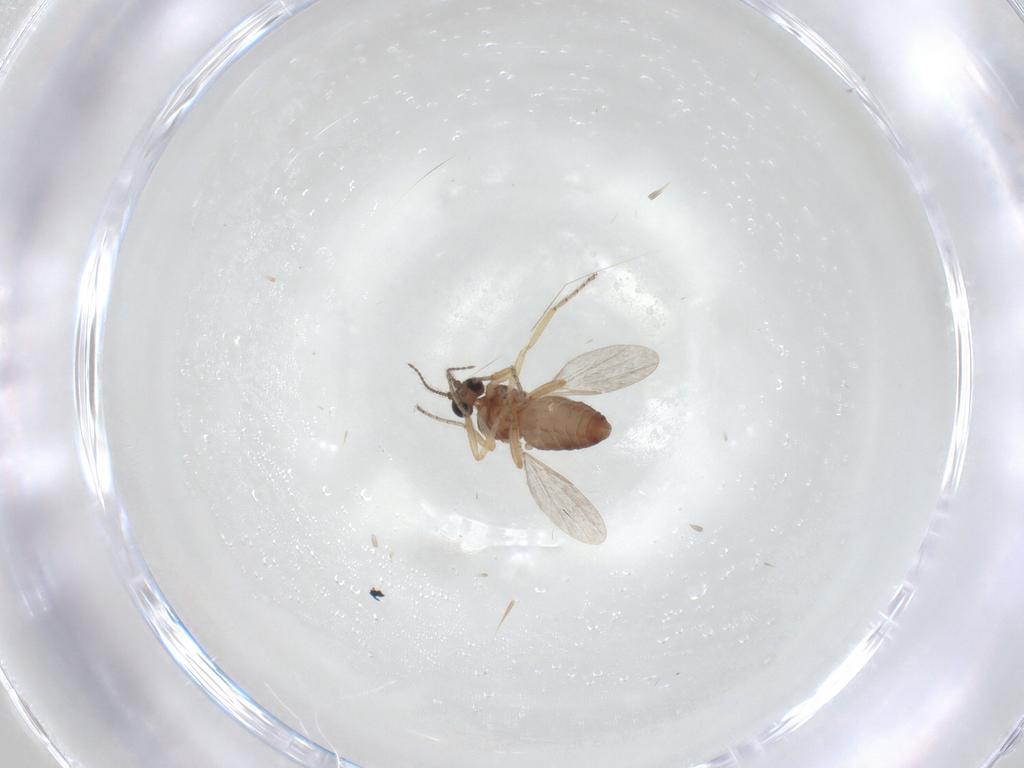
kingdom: Animalia
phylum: Arthropoda
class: Insecta
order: Diptera
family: Ceratopogonidae
